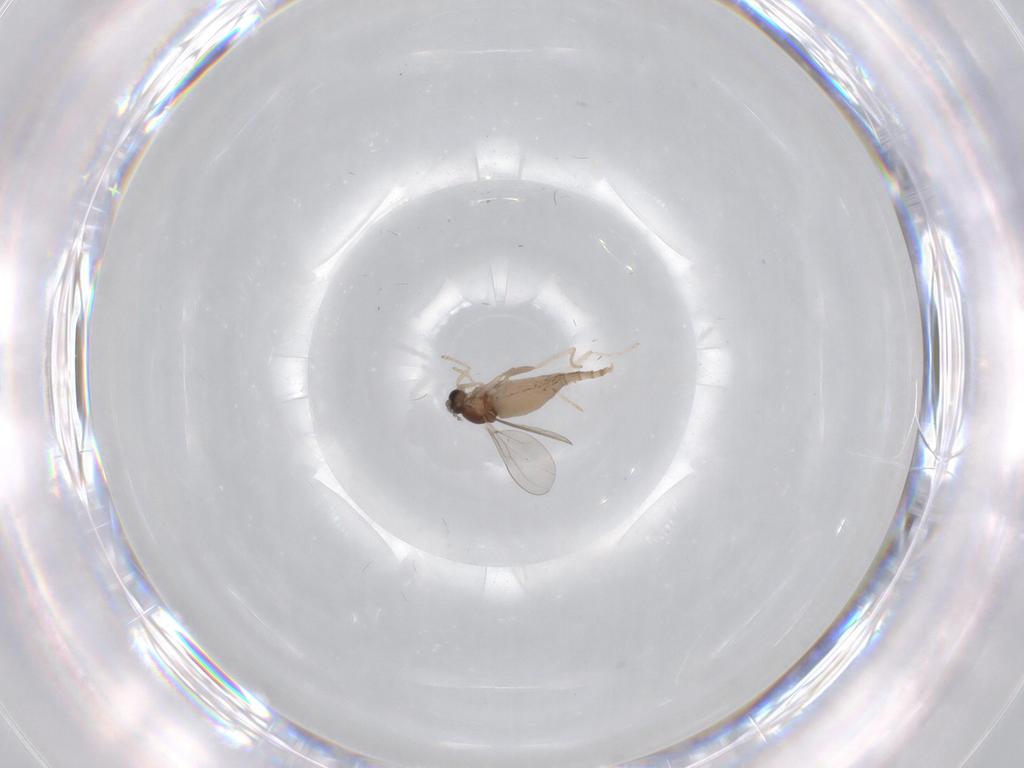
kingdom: Animalia
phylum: Arthropoda
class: Insecta
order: Diptera
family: Cecidomyiidae
